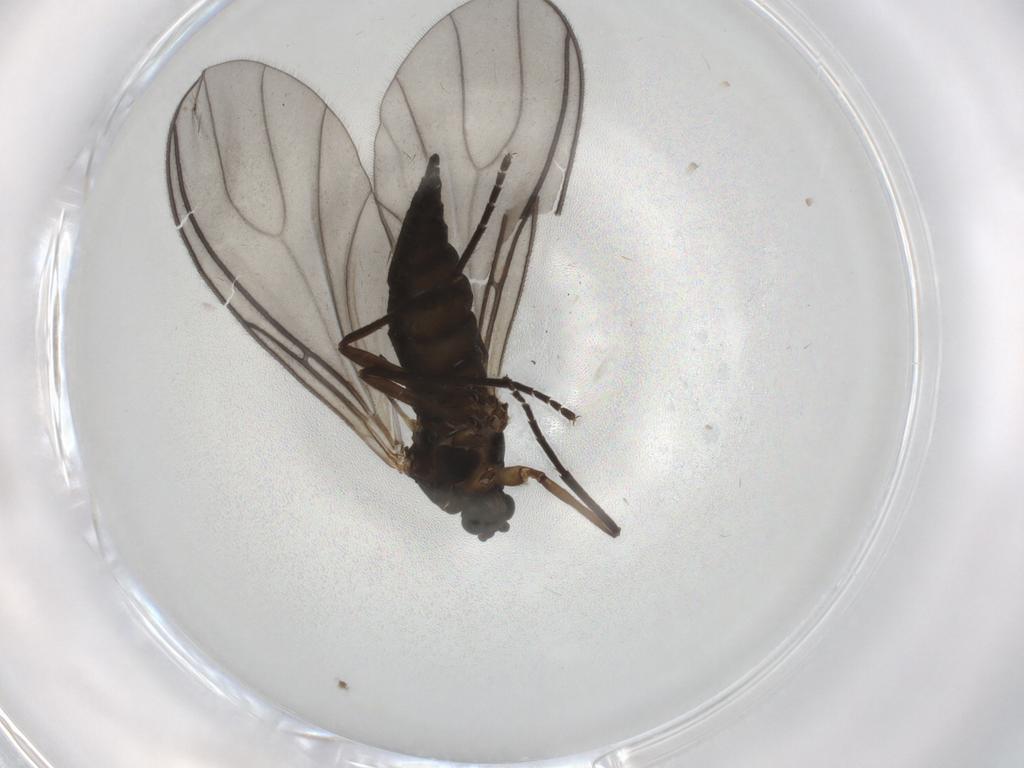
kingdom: Animalia
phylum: Arthropoda
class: Insecta
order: Diptera
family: Sciaridae
